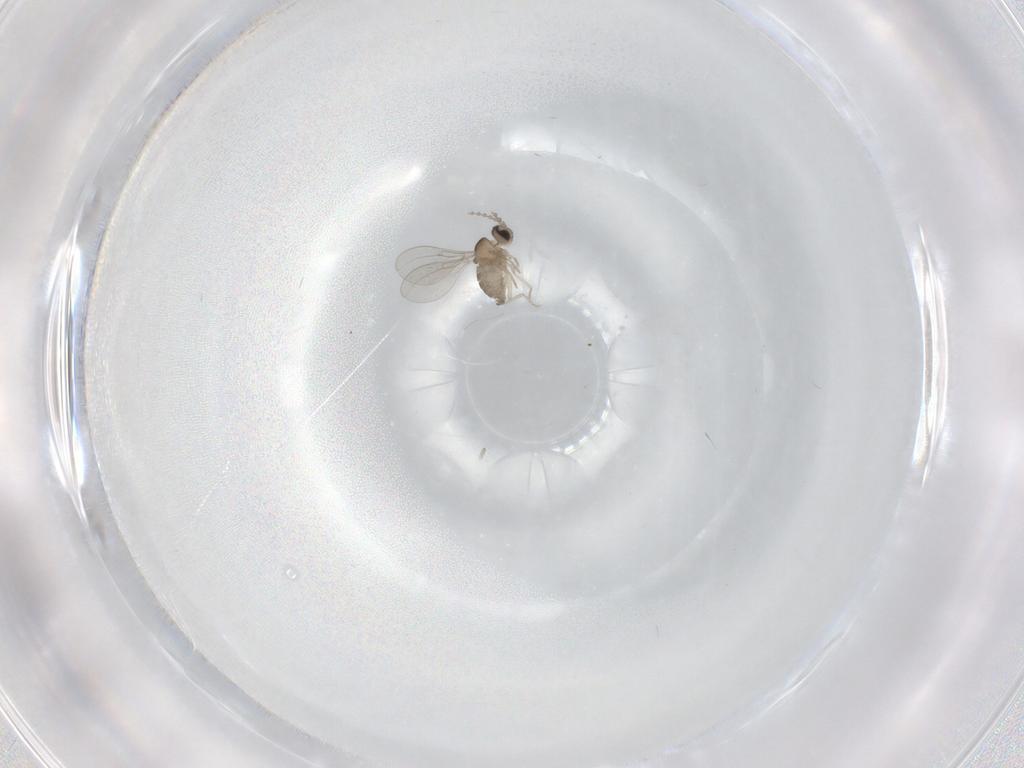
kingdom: Animalia
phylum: Arthropoda
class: Insecta
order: Diptera
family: Cecidomyiidae
